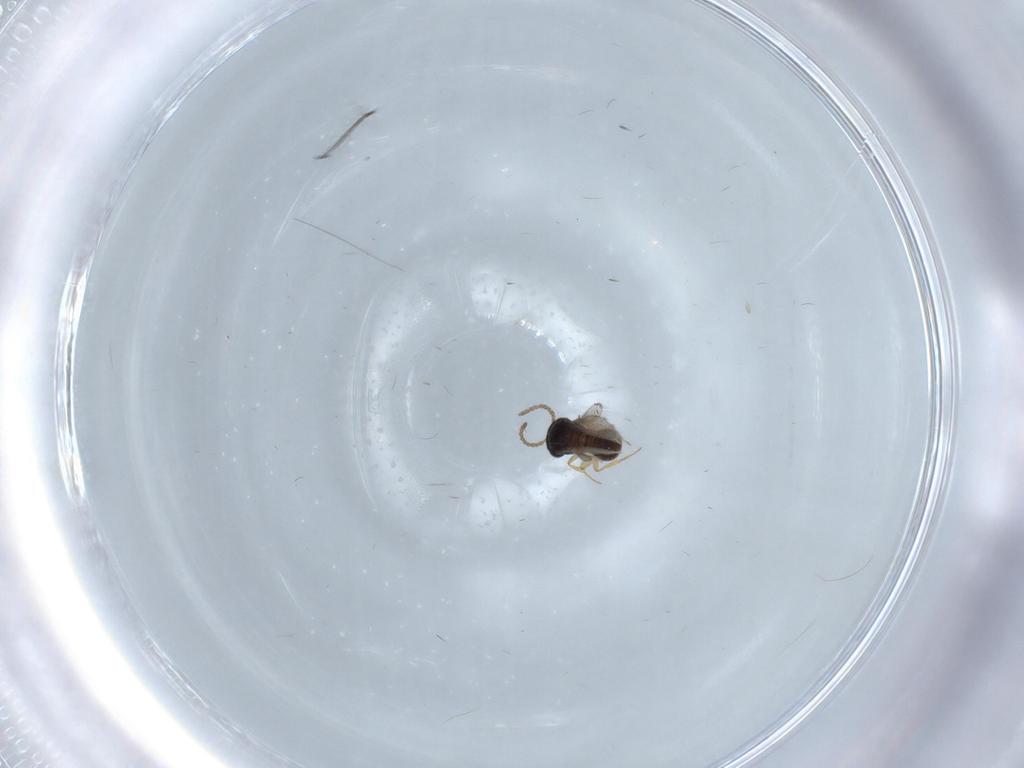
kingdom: Animalia
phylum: Arthropoda
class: Insecta
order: Hymenoptera
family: Scelionidae
